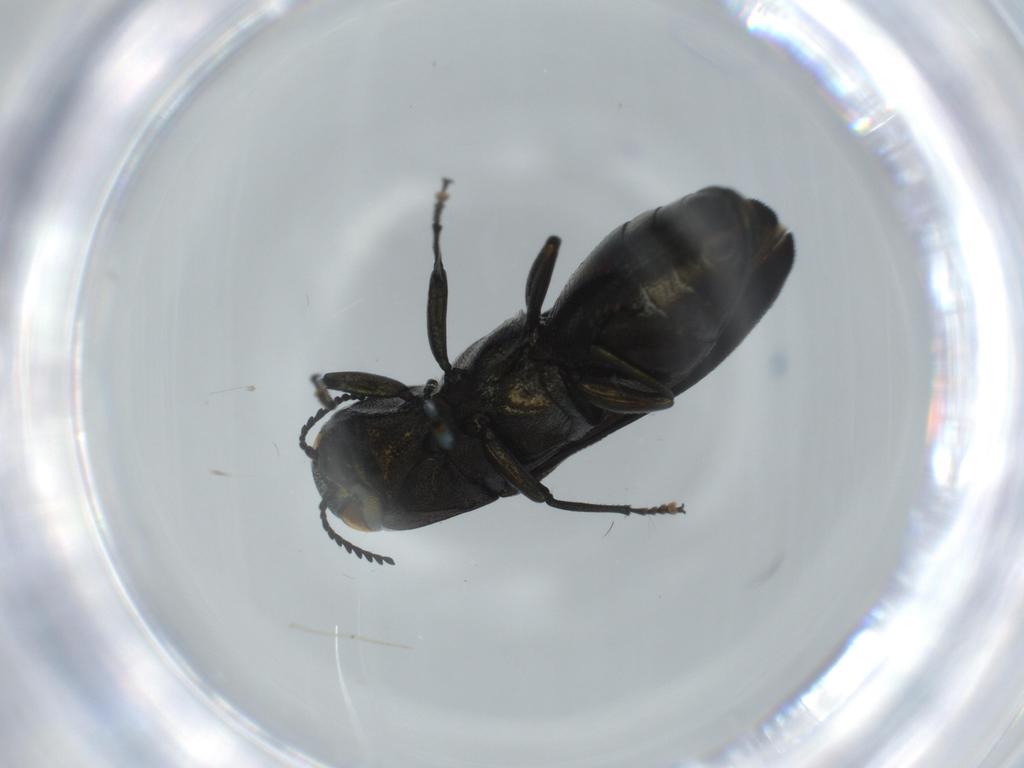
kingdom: Animalia
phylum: Arthropoda
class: Insecta
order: Coleoptera
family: Buprestidae
